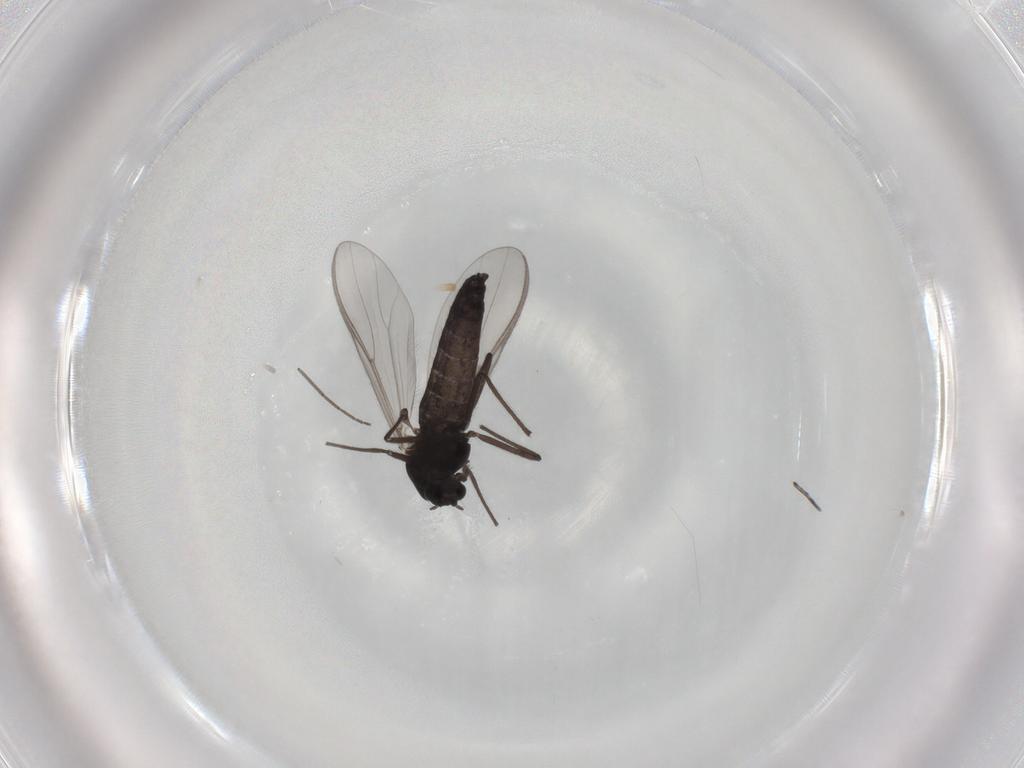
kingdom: Animalia
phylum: Arthropoda
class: Insecta
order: Diptera
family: Chironomidae
